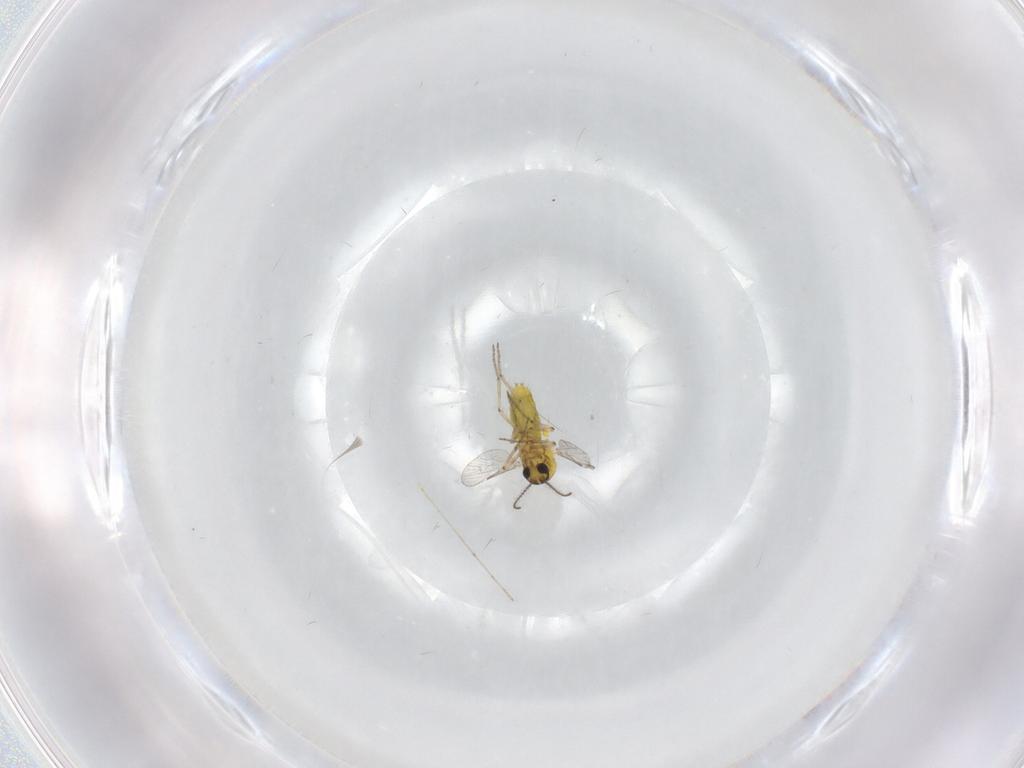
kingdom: Animalia
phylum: Arthropoda
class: Insecta
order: Diptera
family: Ceratopogonidae
